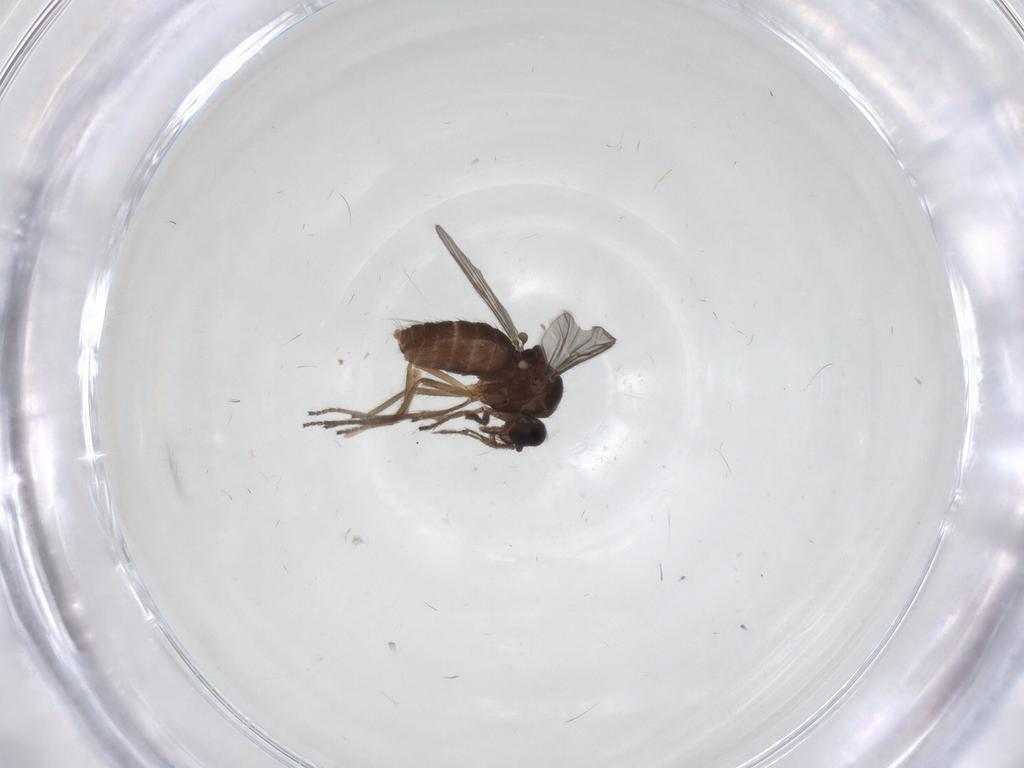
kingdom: Animalia
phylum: Arthropoda
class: Insecta
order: Diptera
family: Ceratopogonidae
